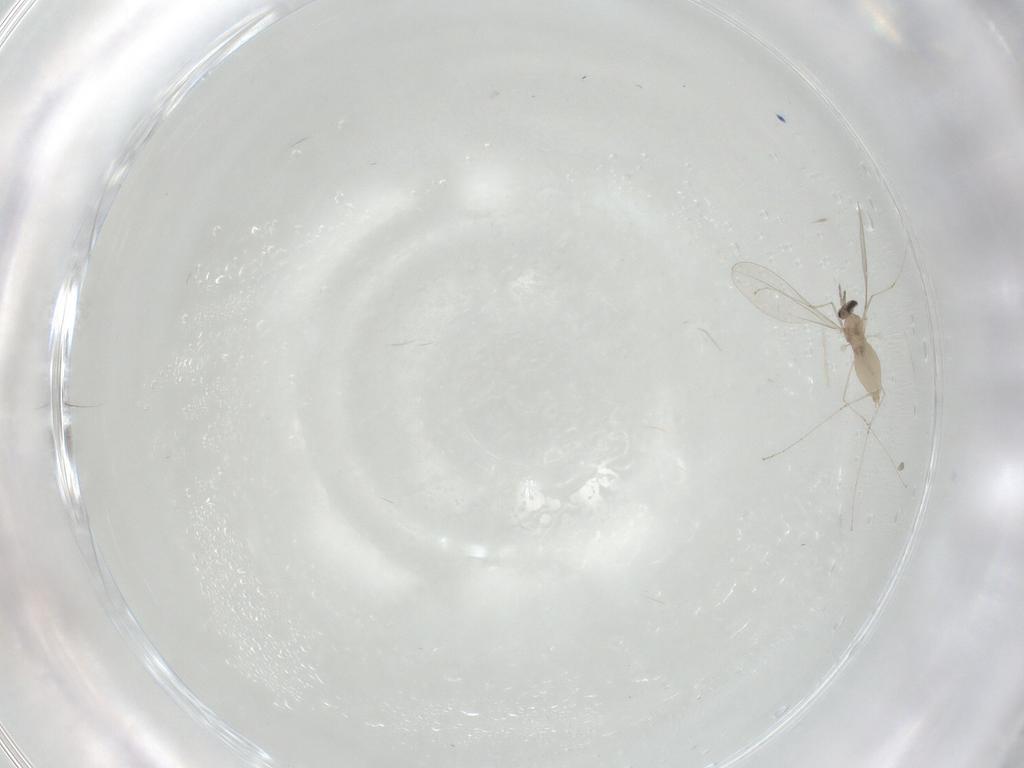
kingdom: Animalia
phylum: Arthropoda
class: Insecta
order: Diptera
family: Cecidomyiidae
